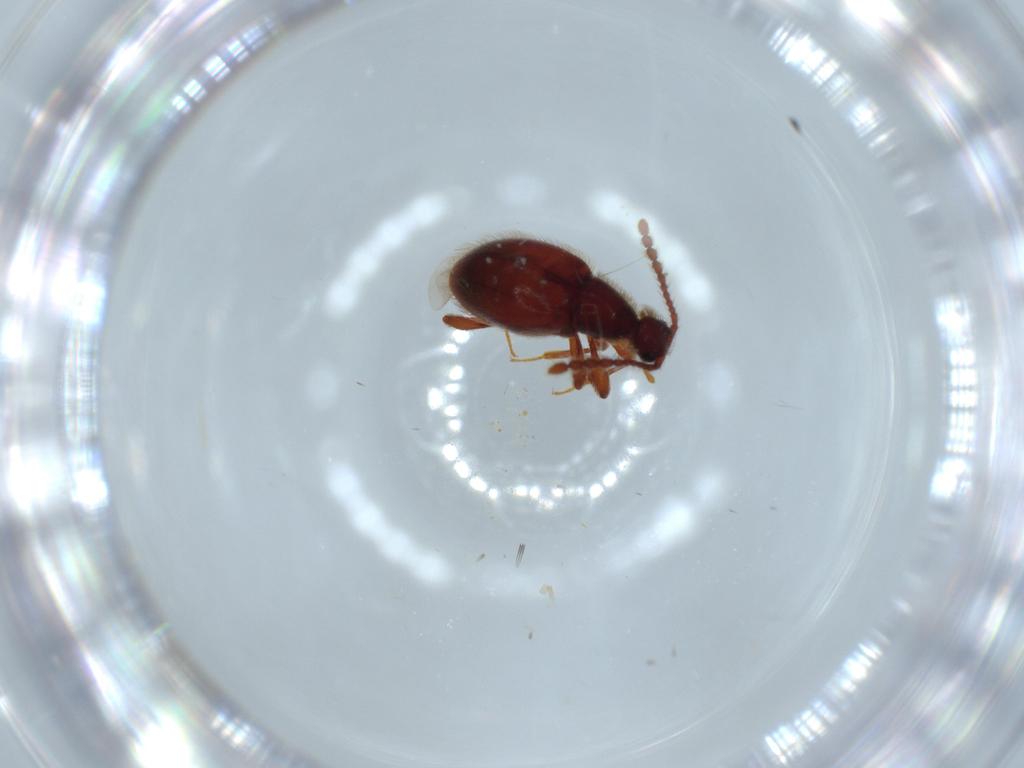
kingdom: Animalia
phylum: Arthropoda
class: Insecta
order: Coleoptera
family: Staphylinidae
